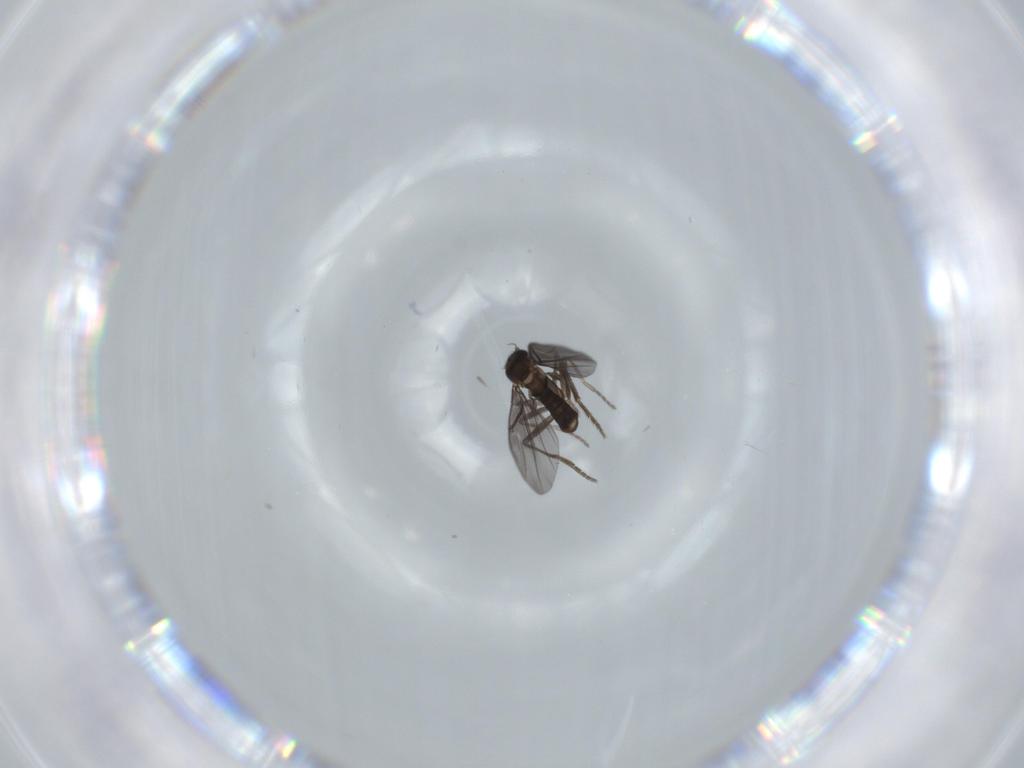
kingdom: Animalia
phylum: Arthropoda
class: Insecta
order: Diptera
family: Phoridae
